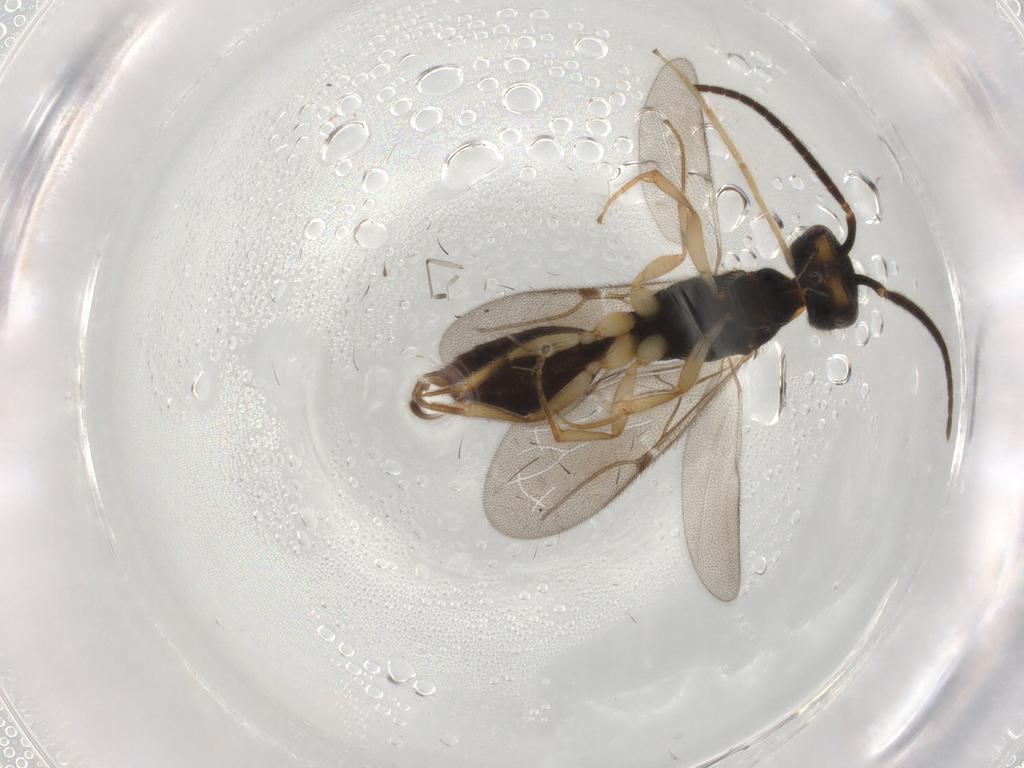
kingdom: Animalia
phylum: Arthropoda
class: Insecta
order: Hymenoptera
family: Bethylidae
